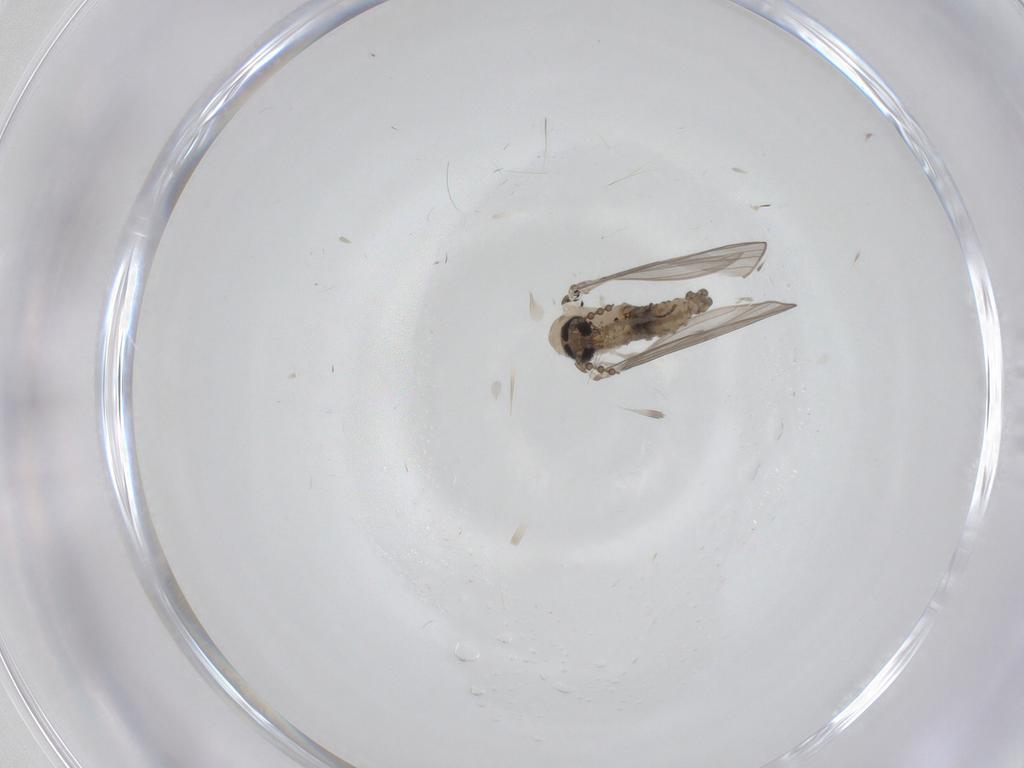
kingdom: Animalia
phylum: Arthropoda
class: Insecta
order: Diptera
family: Psychodidae
